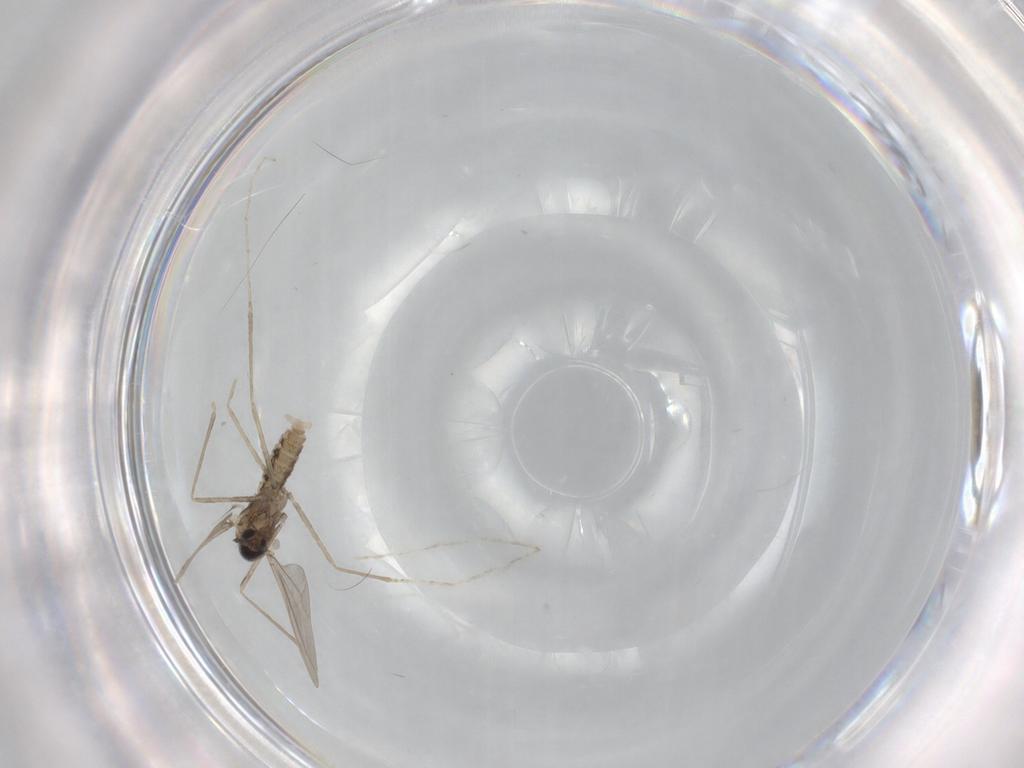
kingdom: Animalia
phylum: Arthropoda
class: Insecta
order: Diptera
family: Cecidomyiidae
